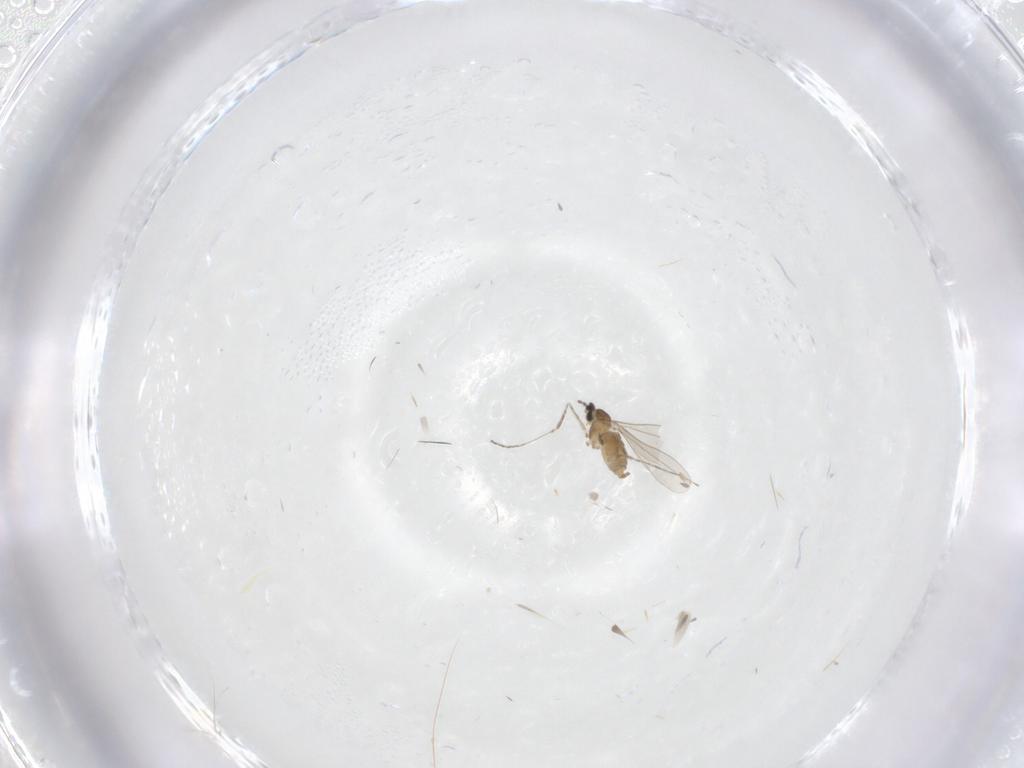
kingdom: Animalia
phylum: Arthropoda
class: Insecta
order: Diptera
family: Cecidomyiidae
